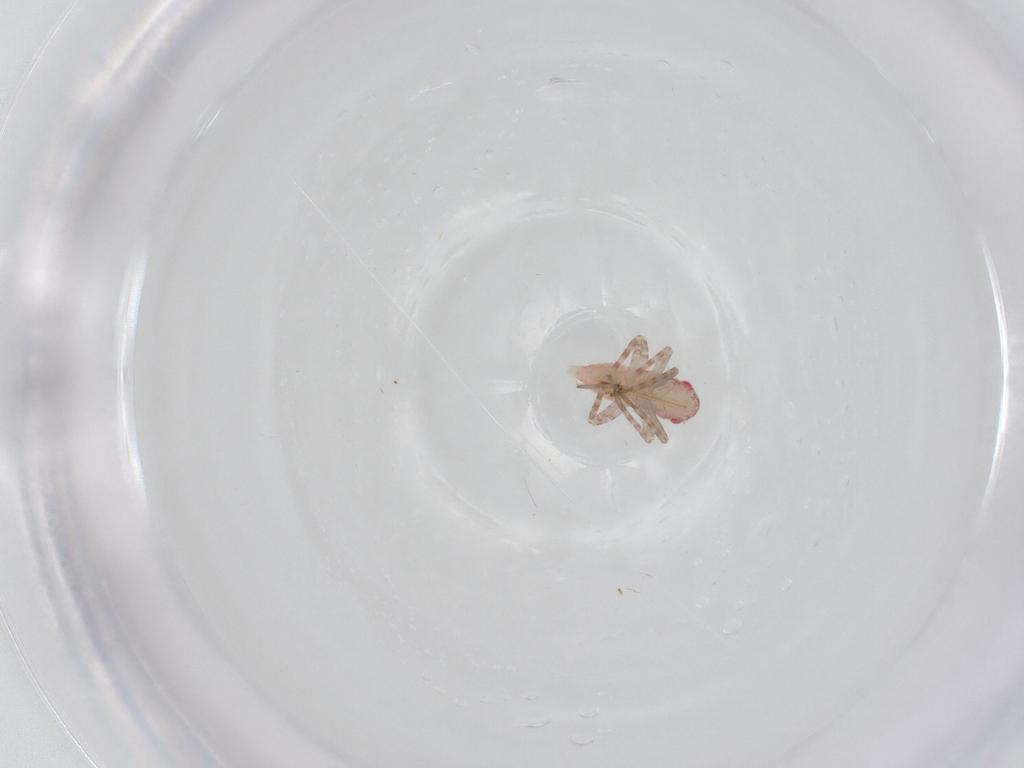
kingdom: Animalia
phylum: Arthropoda
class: Insecta
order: Hemiptera
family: Miridae
